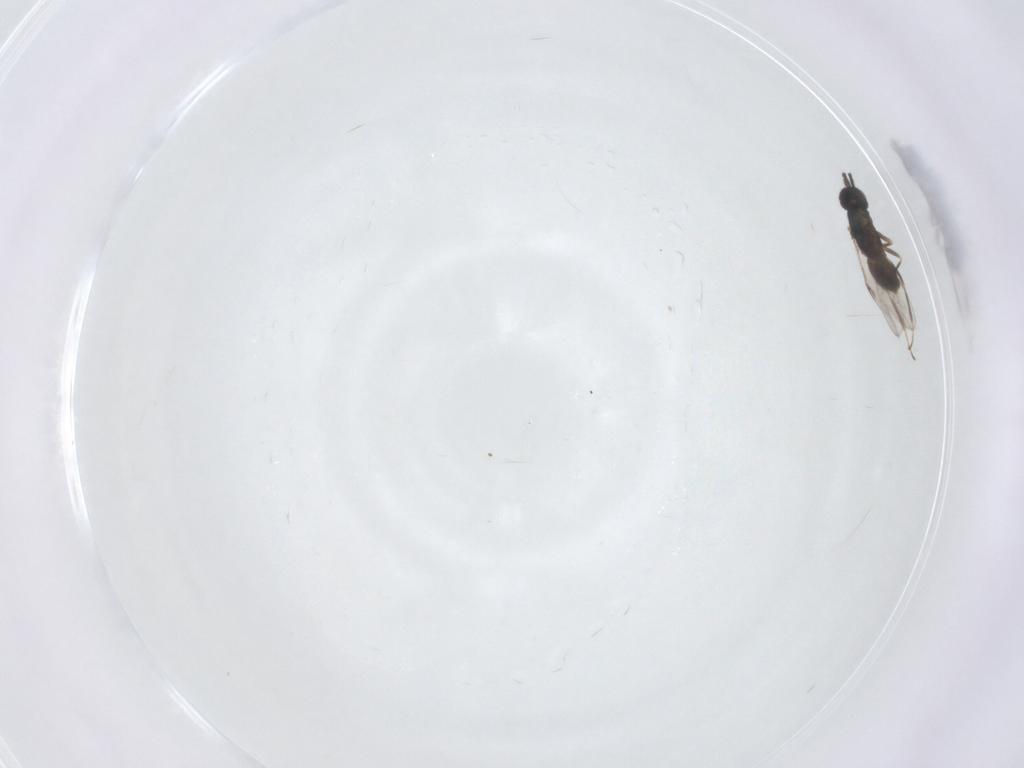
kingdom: Animalia
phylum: Arthropoda
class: Insecta
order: Hymenoptera
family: Encyrtidae
